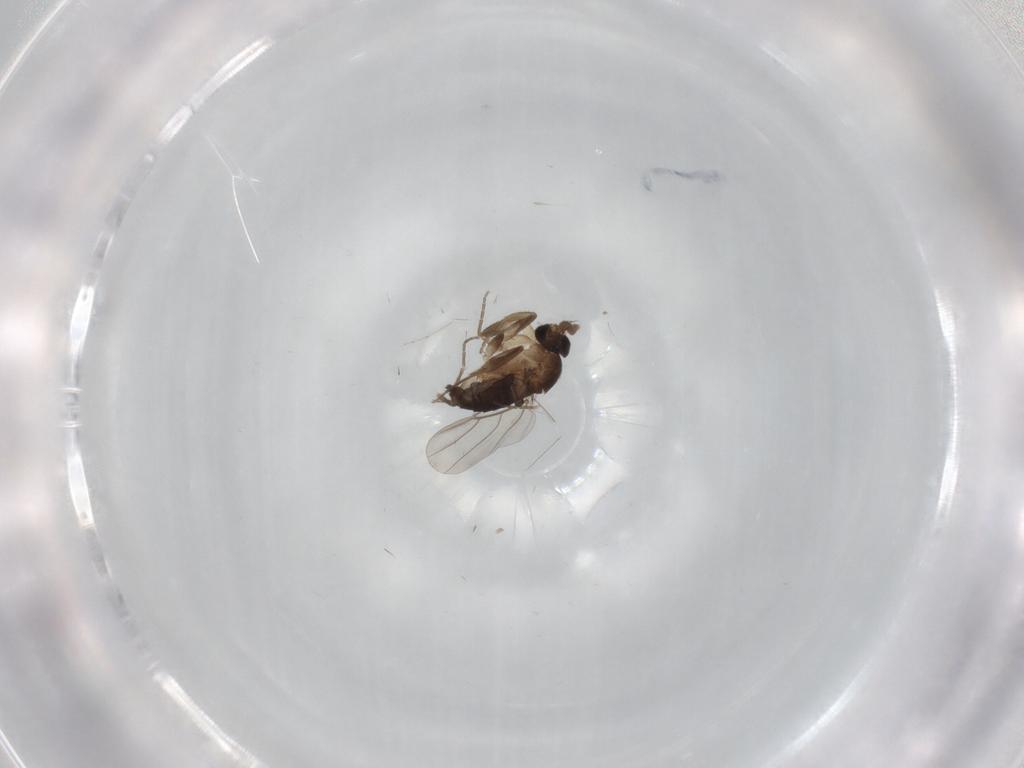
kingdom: Animalia
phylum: Arthropoda
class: Insecta
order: Diptera
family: Phoridae
